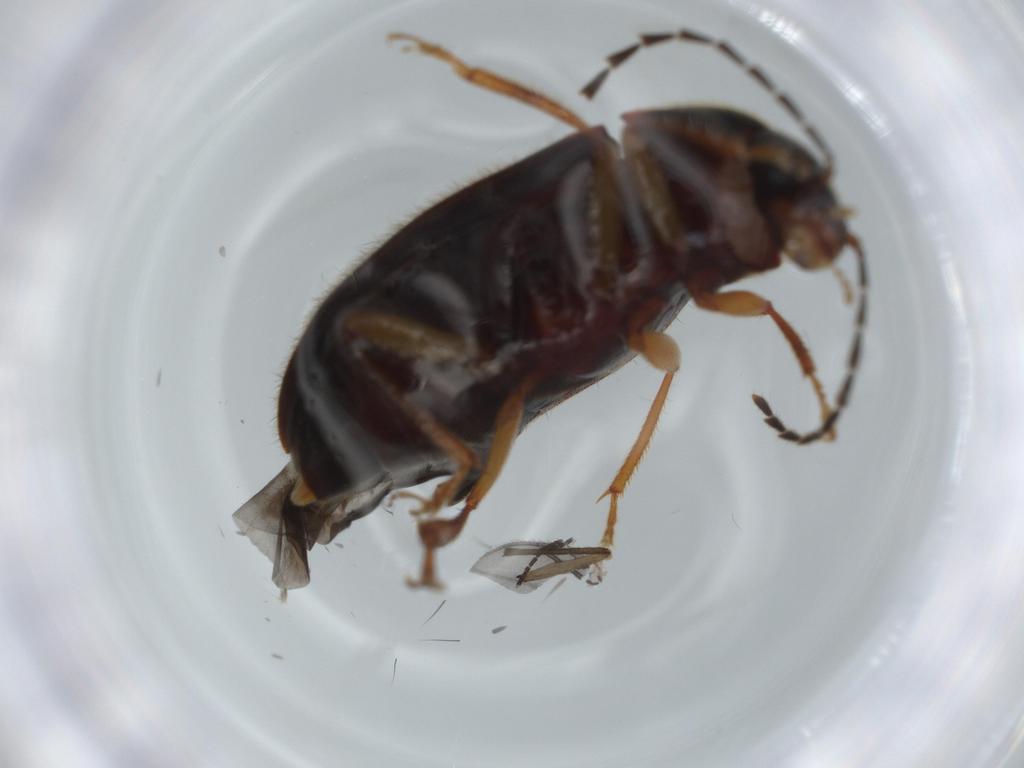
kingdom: Animalia
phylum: Arthropoda
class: Insecta
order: Coleoptera
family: Ptilodactylidae
